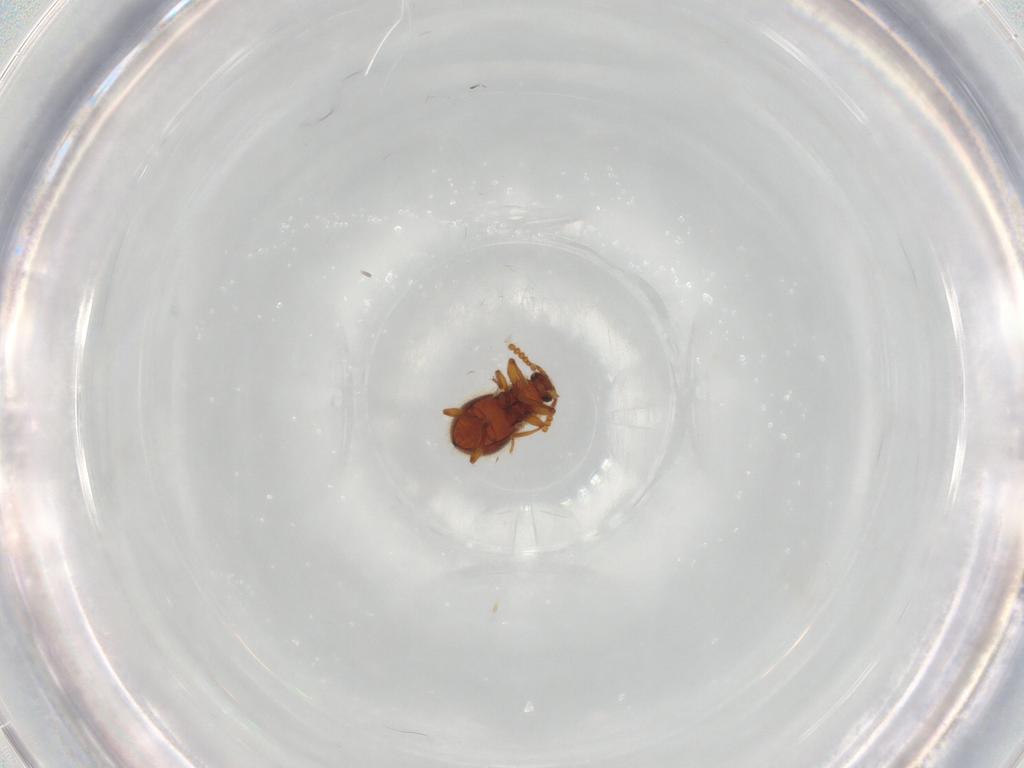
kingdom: Animalia
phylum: Arthropoda
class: Insecta
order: Coleoptera
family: Staphylinidae
